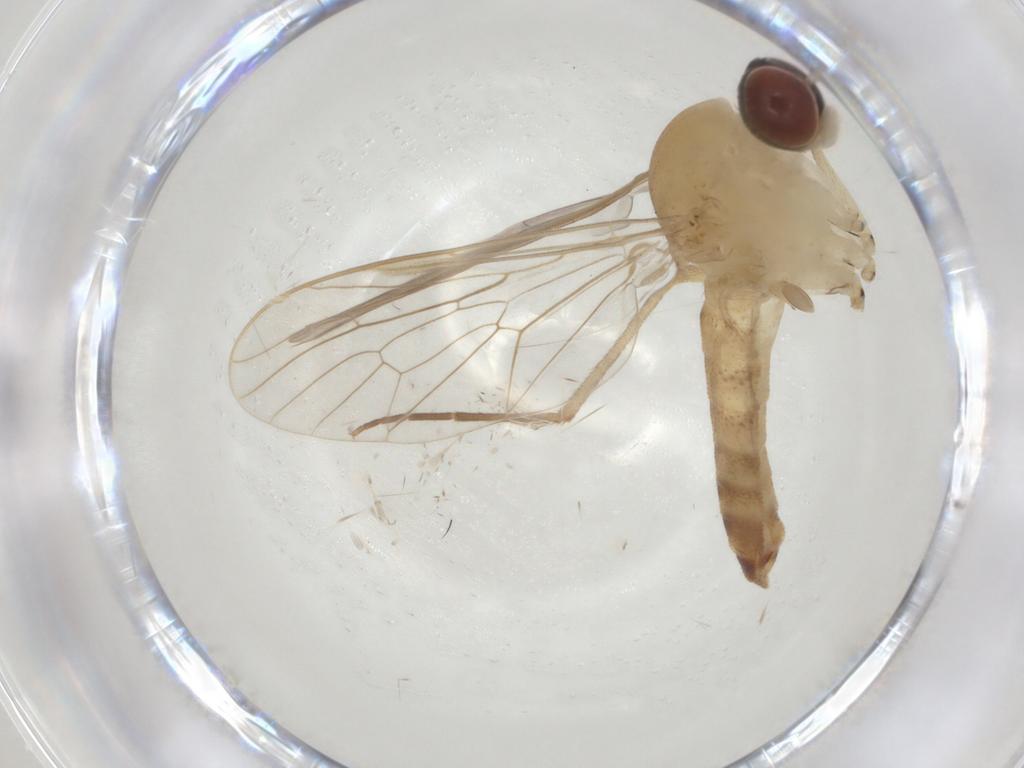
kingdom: Animalia
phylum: Arthropoda
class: Insecta
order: Diptera
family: Apsilocephalidae
